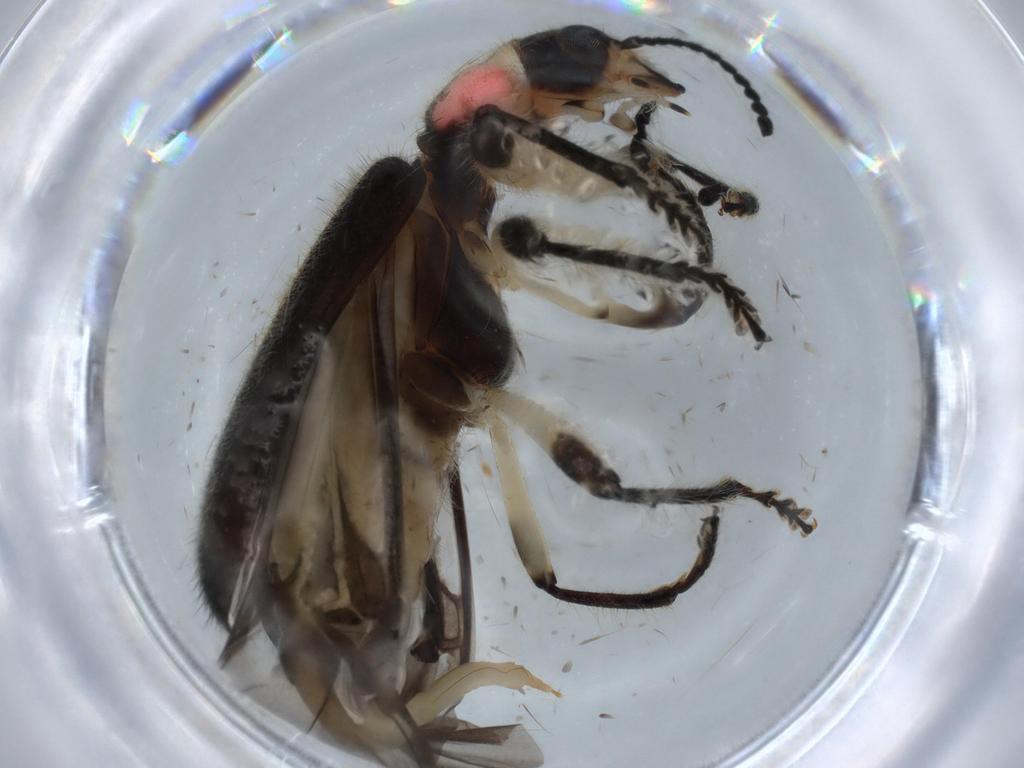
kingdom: Animalia
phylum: Arthropoda
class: Insecta
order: Coleoptera
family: Cleridae
